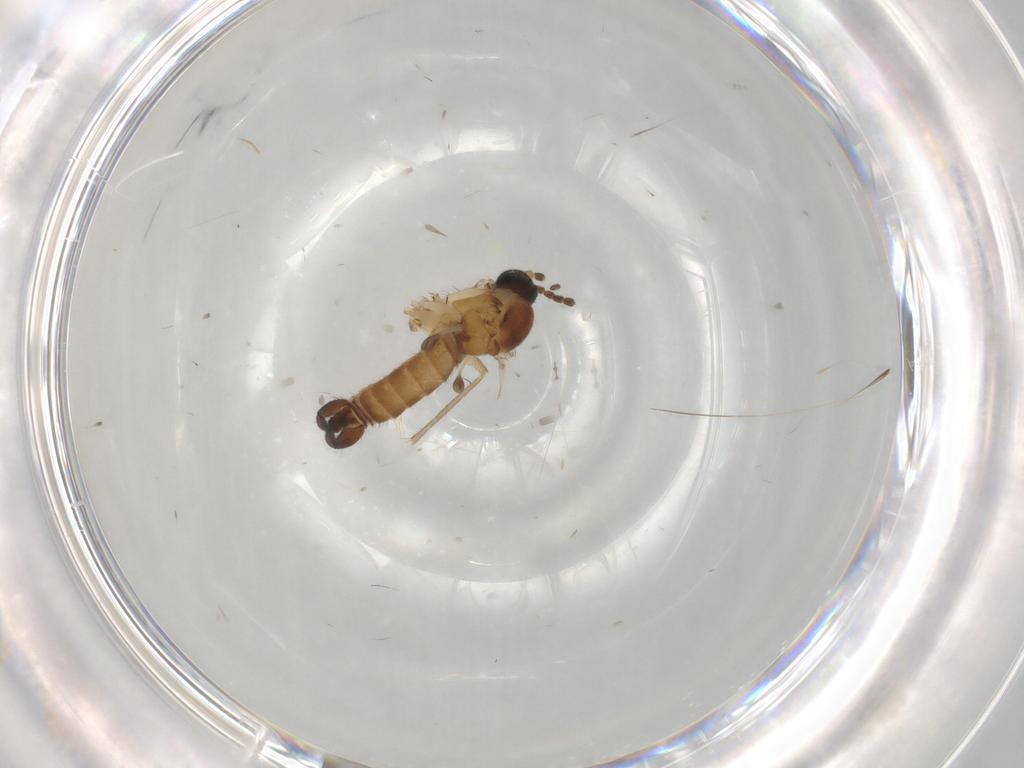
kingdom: Animalia
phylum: Arthropoda
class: Insecta
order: Diptera
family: Sciaridae
